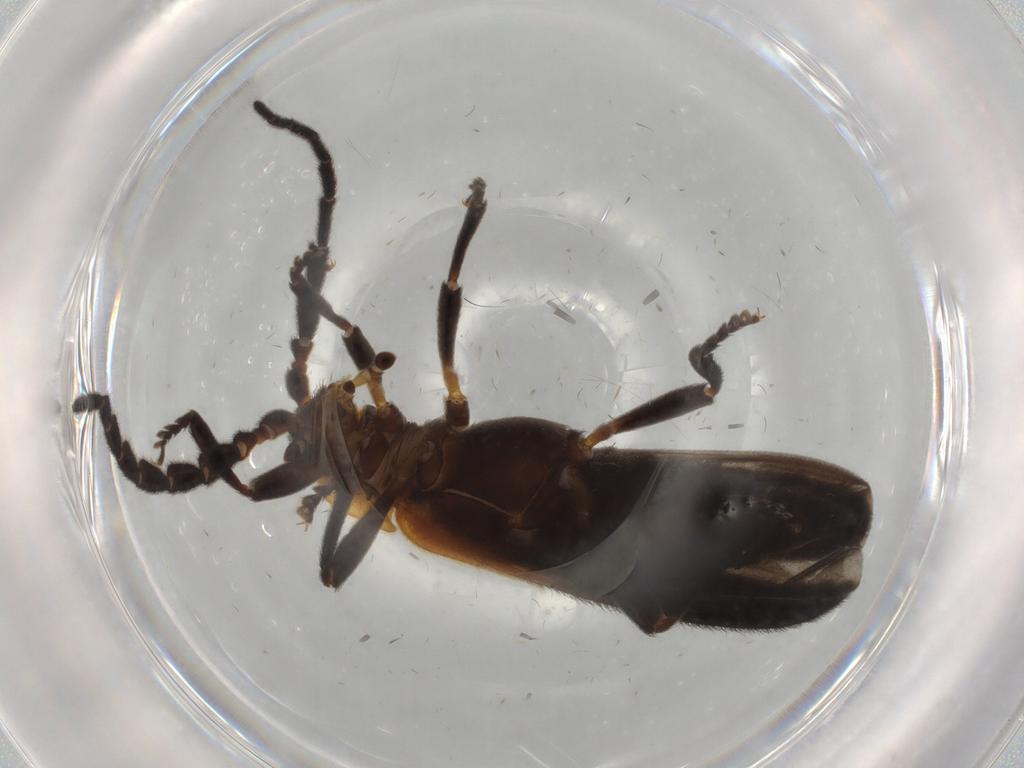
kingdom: Animalia
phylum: Arthropoda
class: Insecta
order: Coleoptera
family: Lycidae
